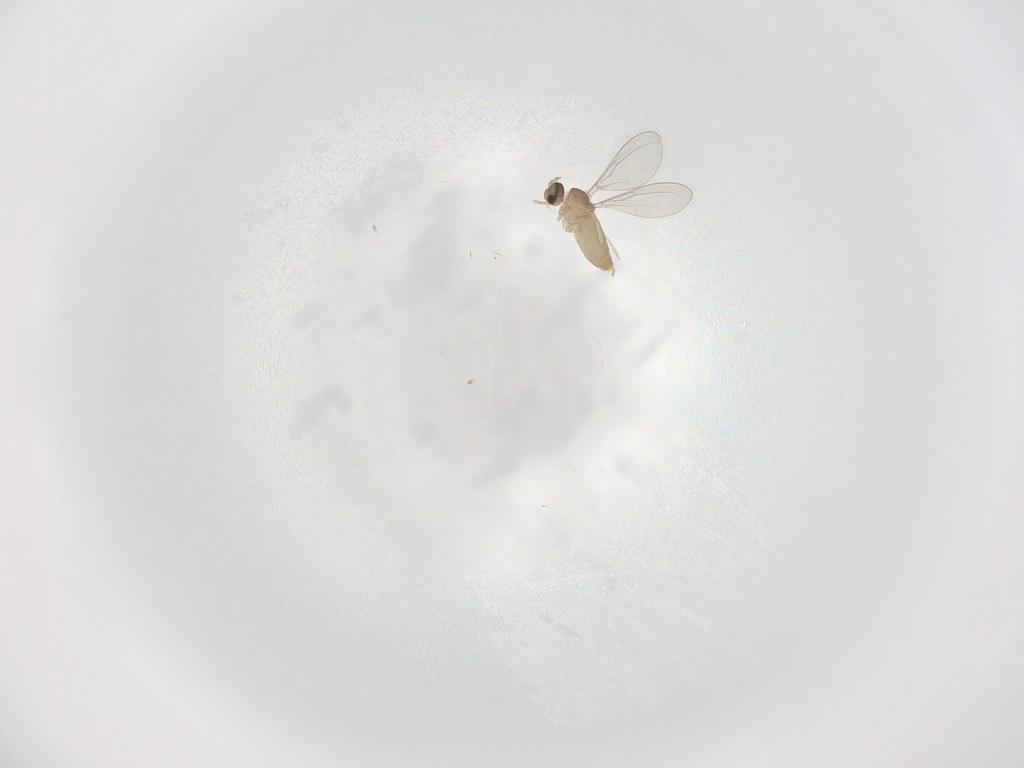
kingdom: Animalia
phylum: Arthropoda
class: Insecta
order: Diptera
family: Cecidomyiidae
